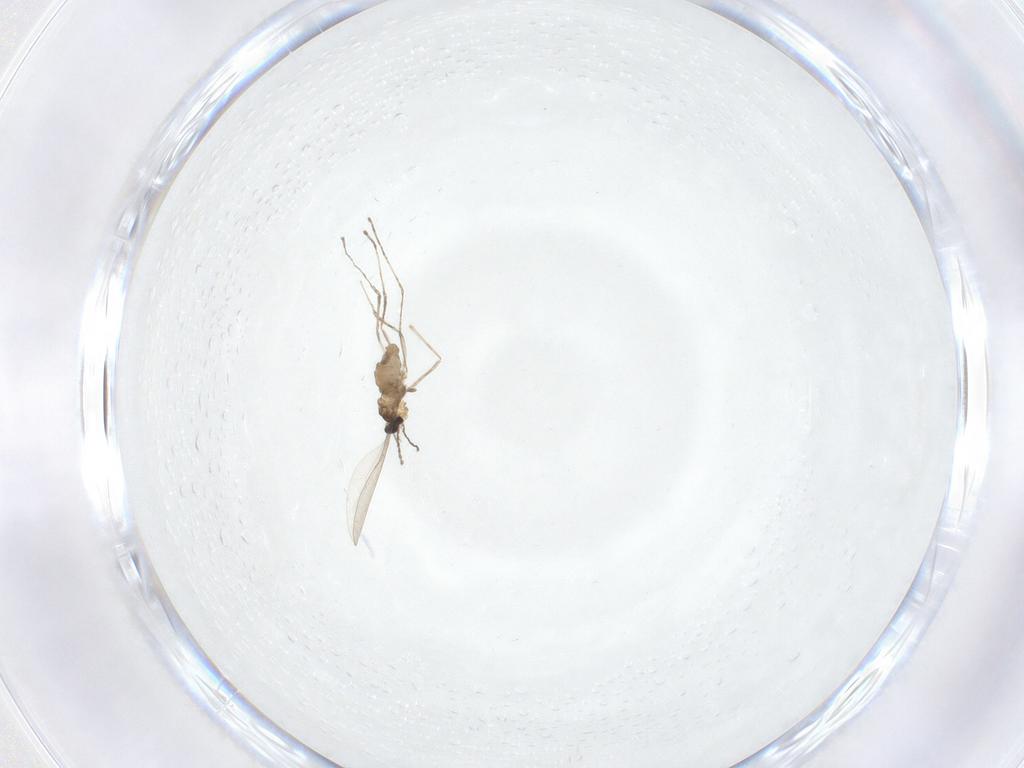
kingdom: Animalia
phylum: Arthropoda
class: Insecta
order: Diptera
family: Cecidomyiidae
